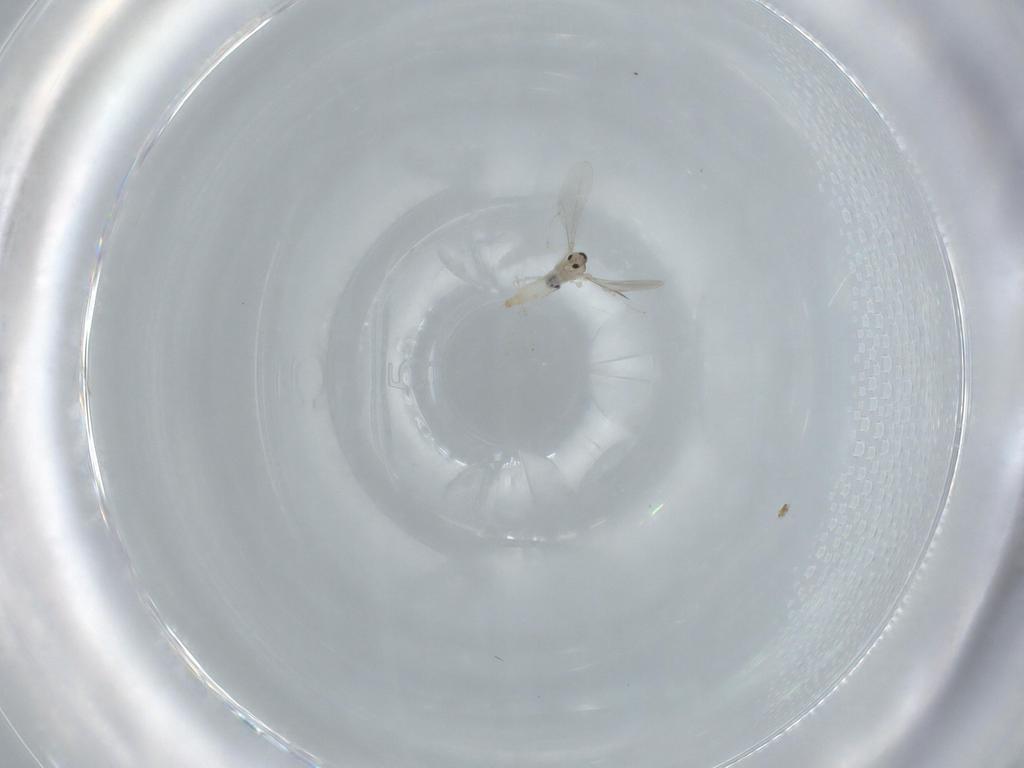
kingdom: Animalia
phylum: Arthropoda
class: Insecta
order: Diptera
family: Cecidomyiidae
